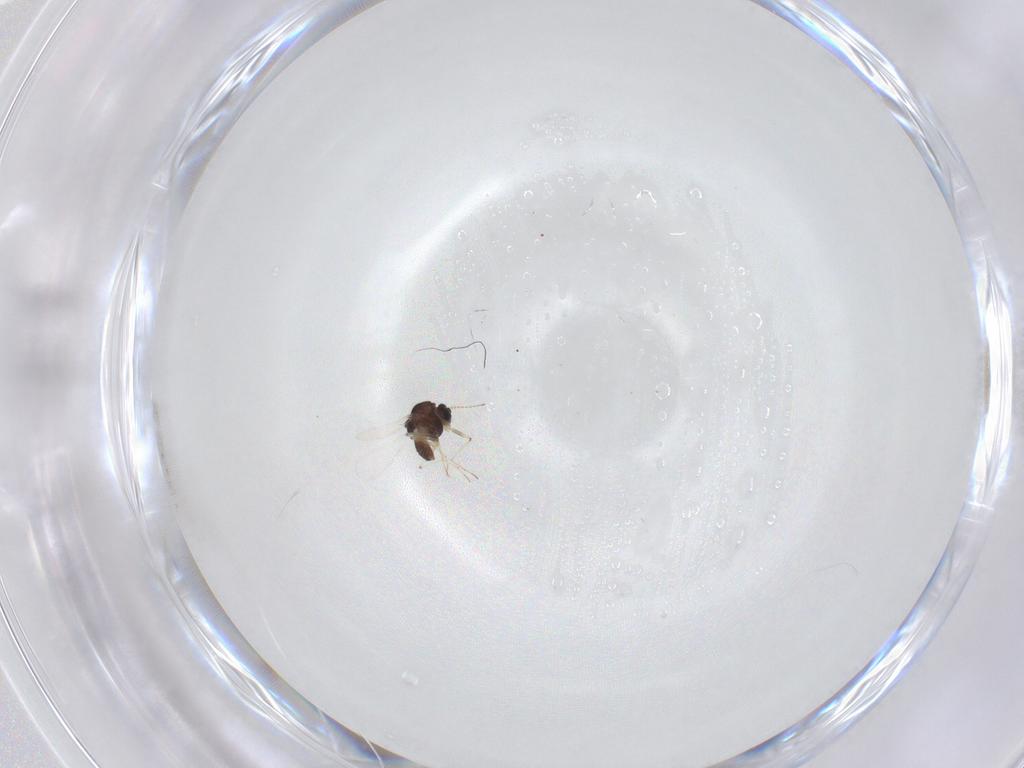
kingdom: Animalia
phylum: Arthropoda
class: Insecta
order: Diptera
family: Chironomidae
